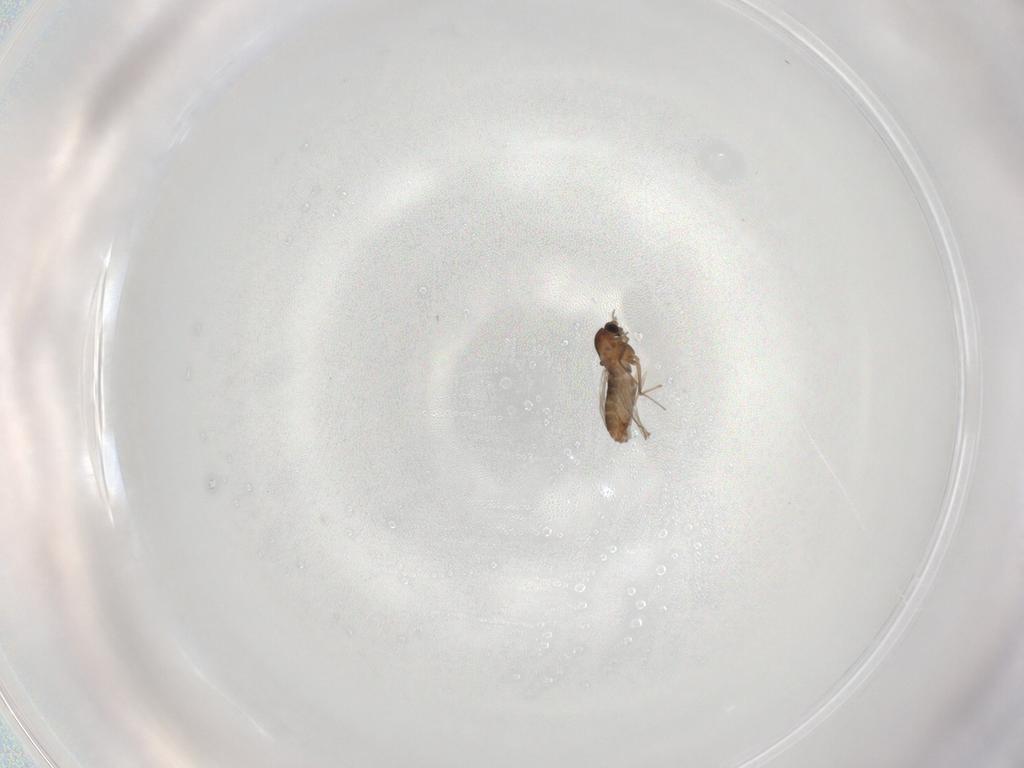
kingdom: Animalia
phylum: Arthropoda
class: Insecta
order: Diptera
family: Chironomidae
